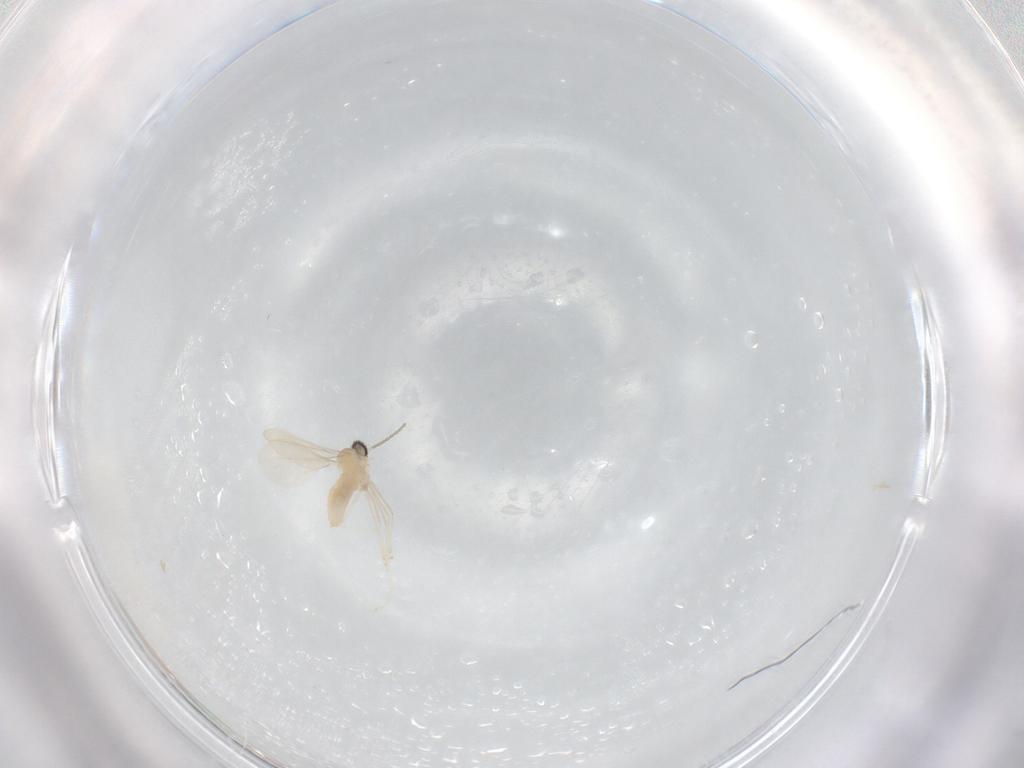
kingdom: Animalia
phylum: Arthropoda
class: Insecta
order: Diptera
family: Cecidomyiidae
